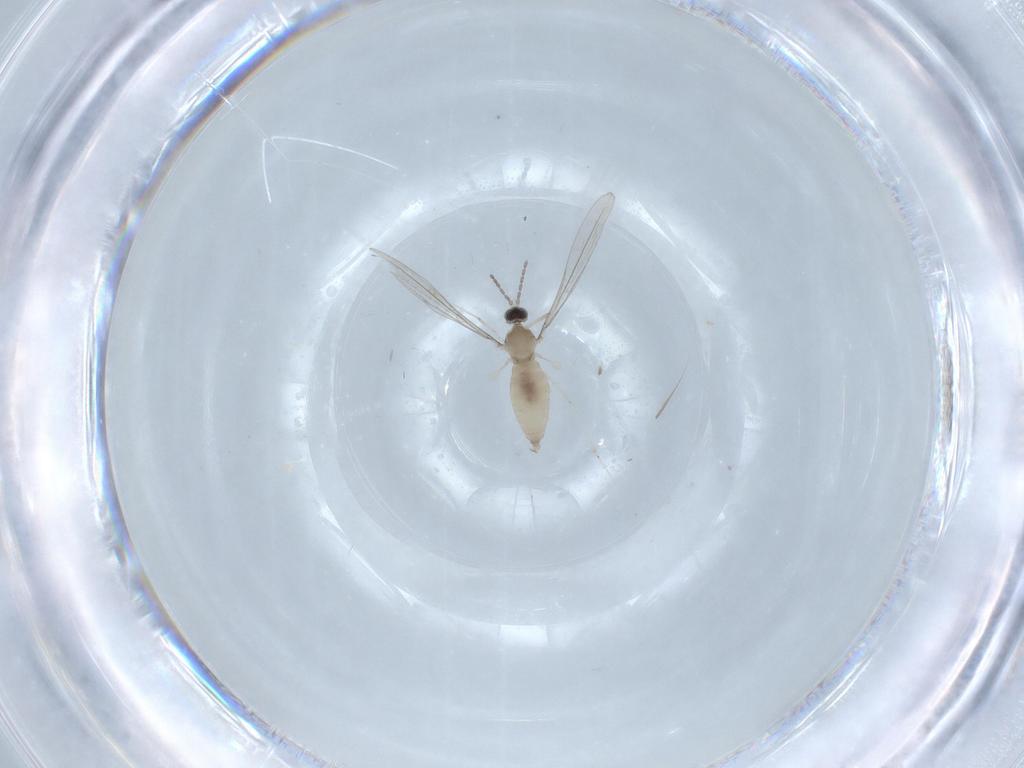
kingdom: Animalia
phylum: Arthropoda
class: Insecta
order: Diptera
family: Cecidomyiidae
